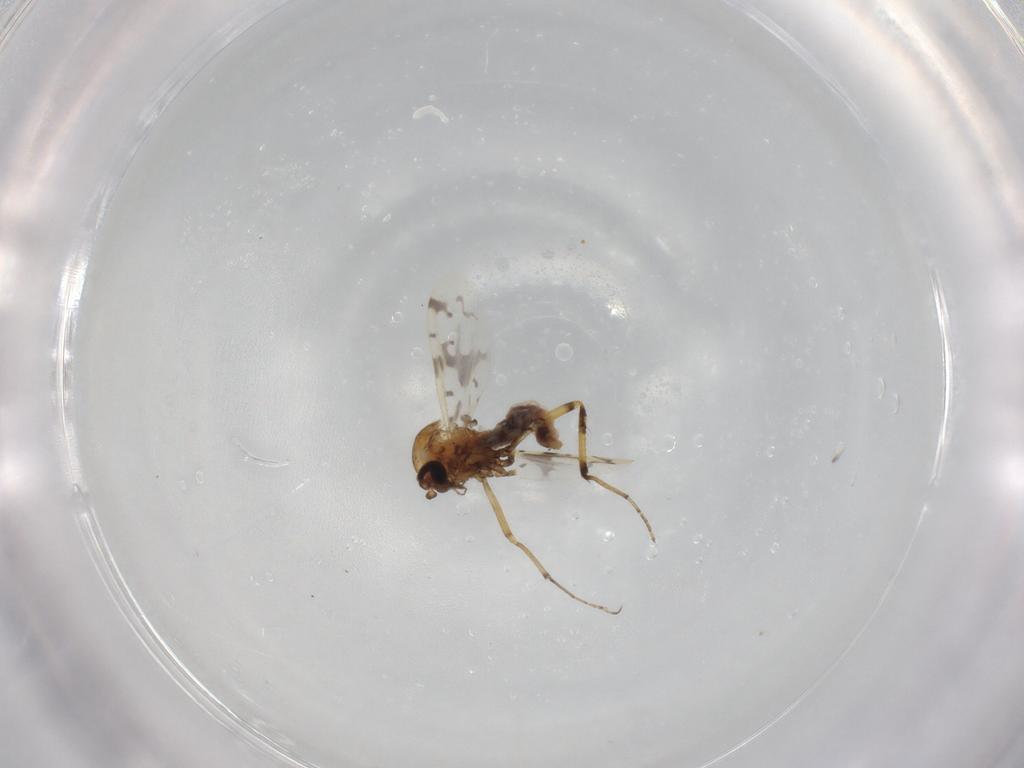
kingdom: Animalia
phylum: Arthropoda
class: Insecta
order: Diptera
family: Ceratopogonidae
